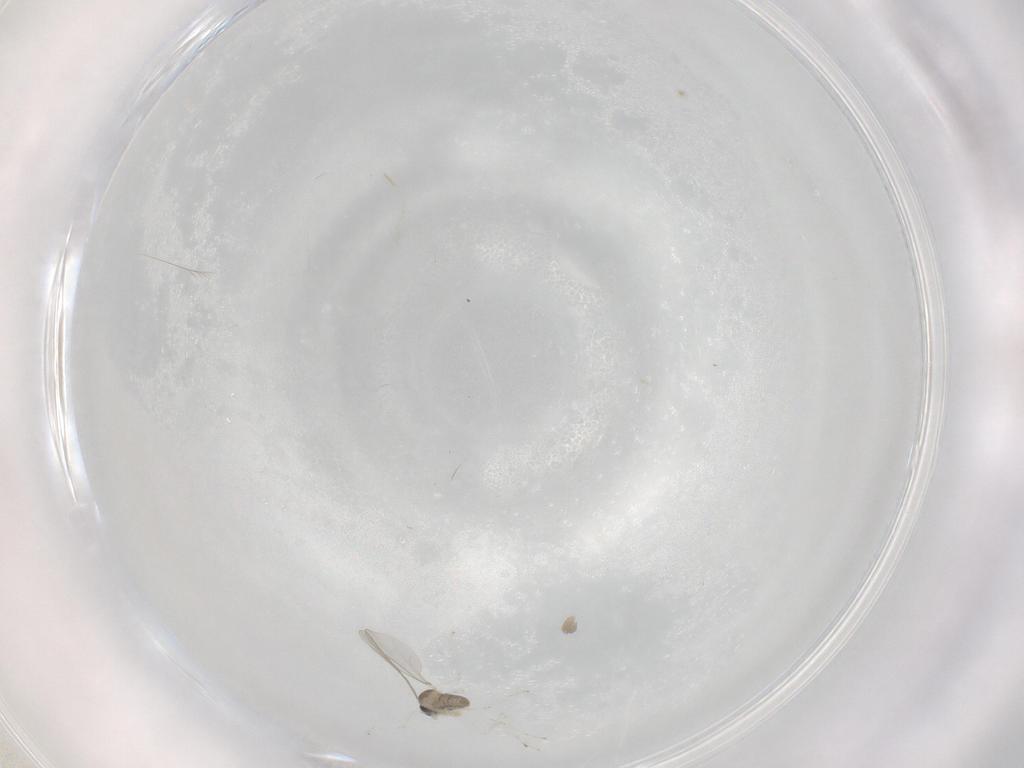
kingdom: Animalia
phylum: Arthropoda
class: Insecta
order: Diptera
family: Cecidomyiidae
